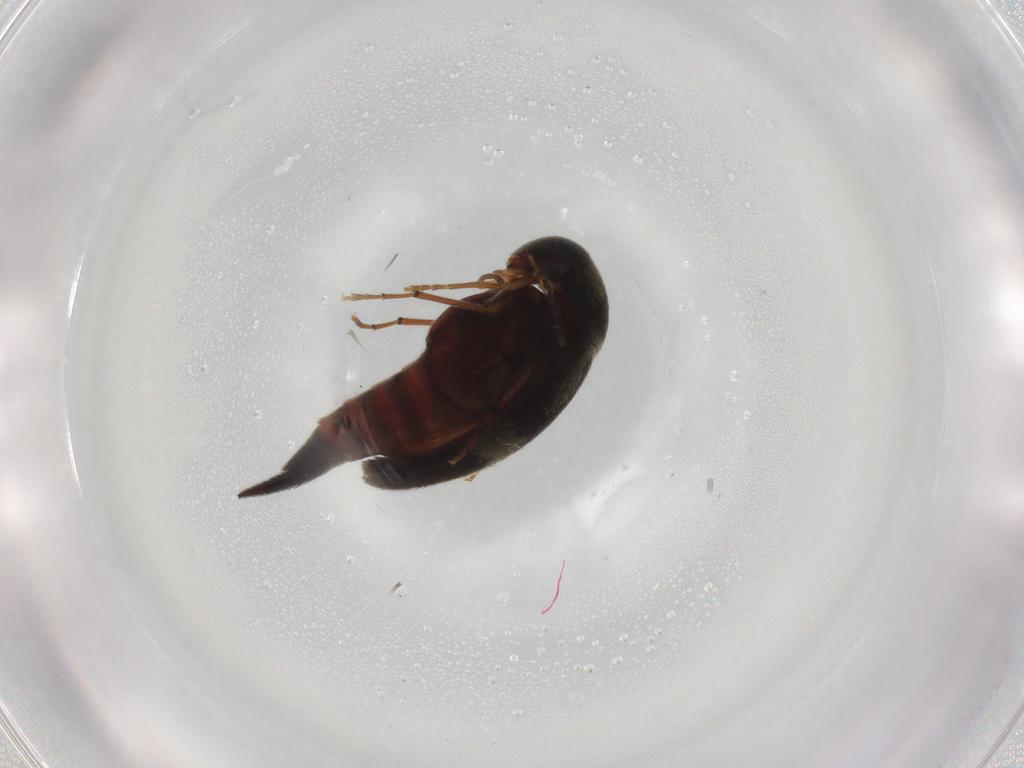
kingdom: Animalia
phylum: Arthropoda
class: Insecta
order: Coleoptera
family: Mordellidae
